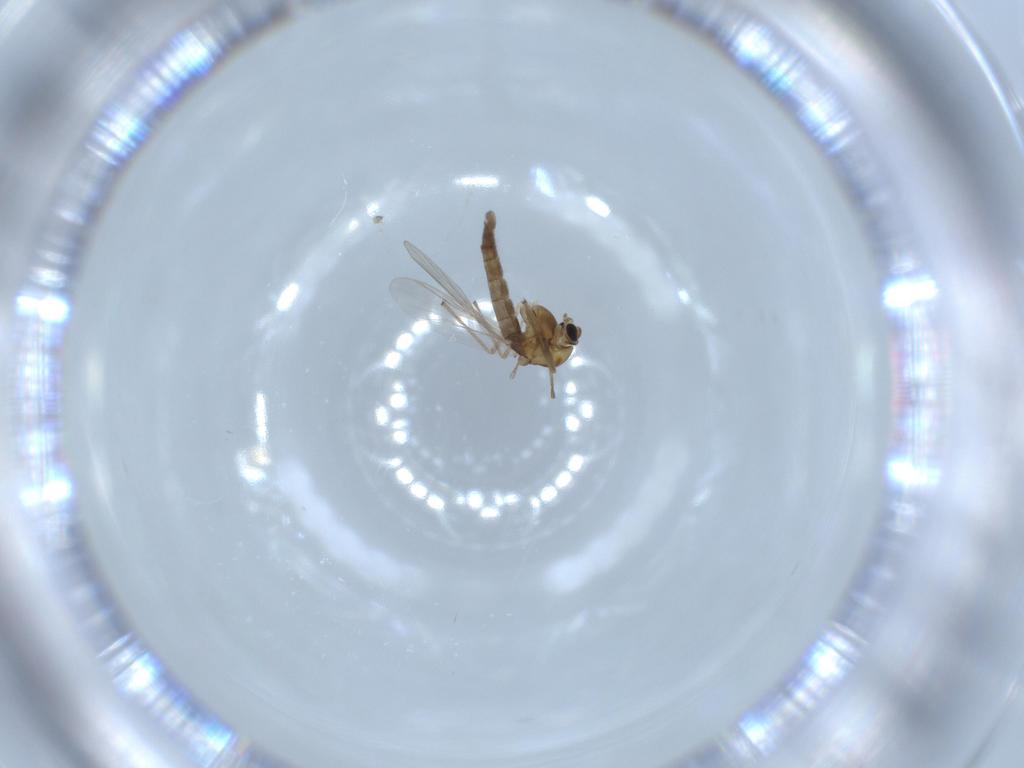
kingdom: Animalia
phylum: Arthropoda
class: Insecta
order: Diptera
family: Chironomidae
